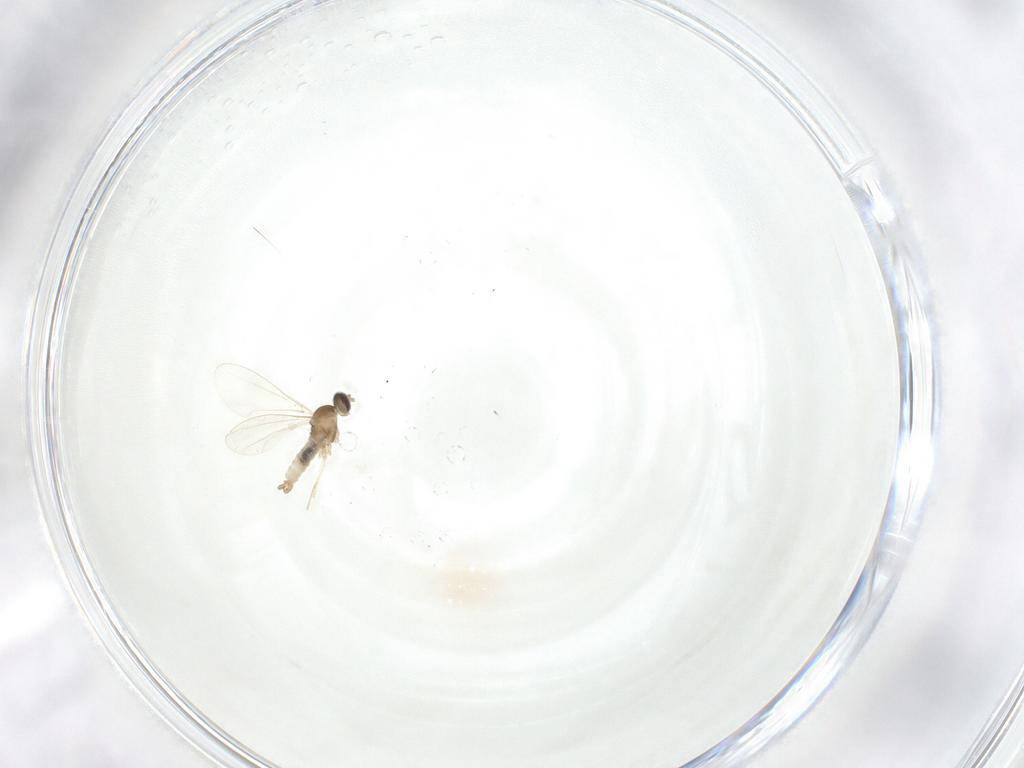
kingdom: Animalia
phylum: Arthropoda
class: Insecta
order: Diptera
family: Cecidomyiidae
